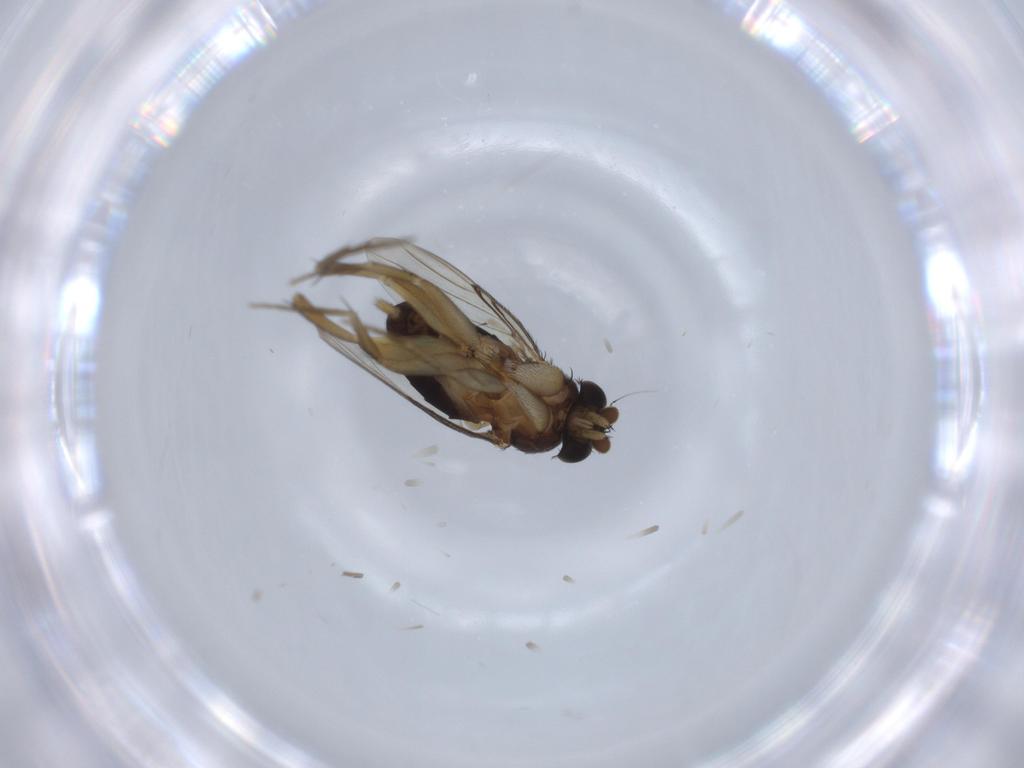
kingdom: Animalia
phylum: Arthropoda
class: Insecta
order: Diptera
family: Phoridae
